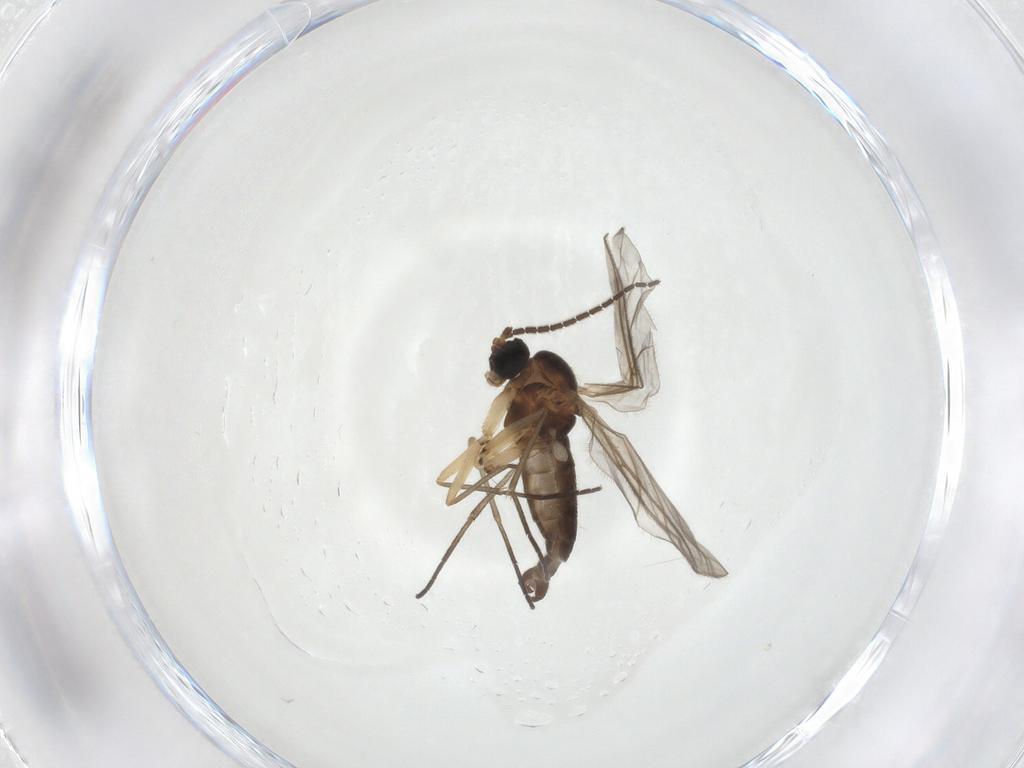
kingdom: Animalia
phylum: Arthropoda
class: Insecta
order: Diptera
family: Sciaridae
